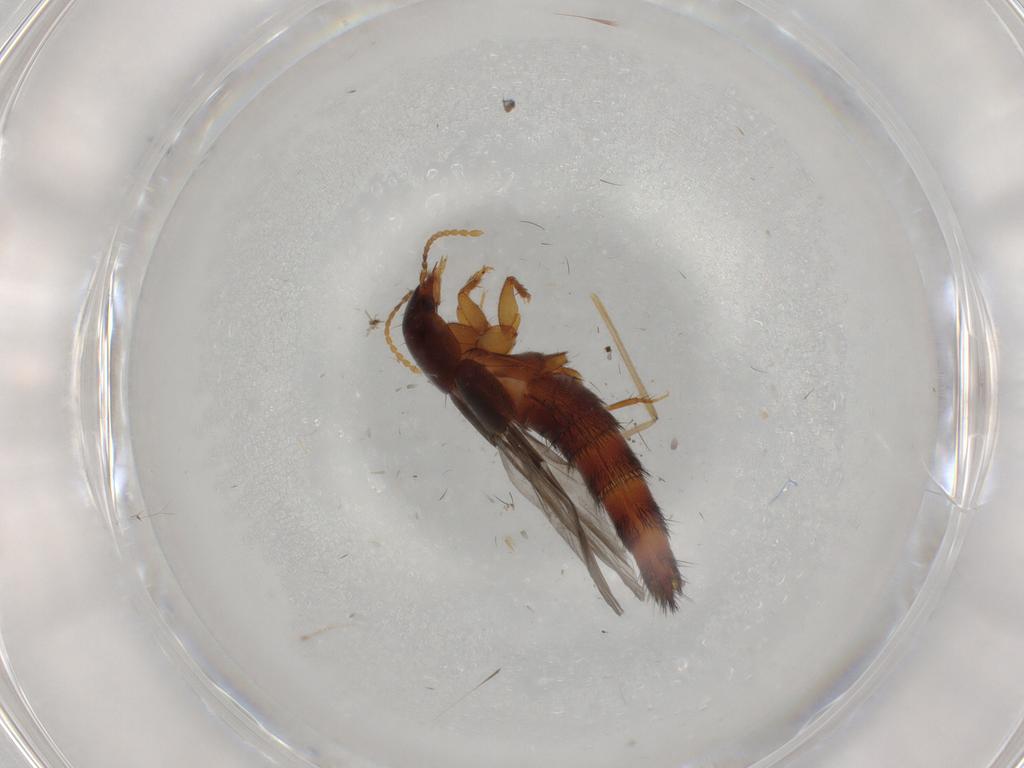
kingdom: Animalia
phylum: Arthropoda
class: Insecta
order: Coleoptera
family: Staphylinidae
